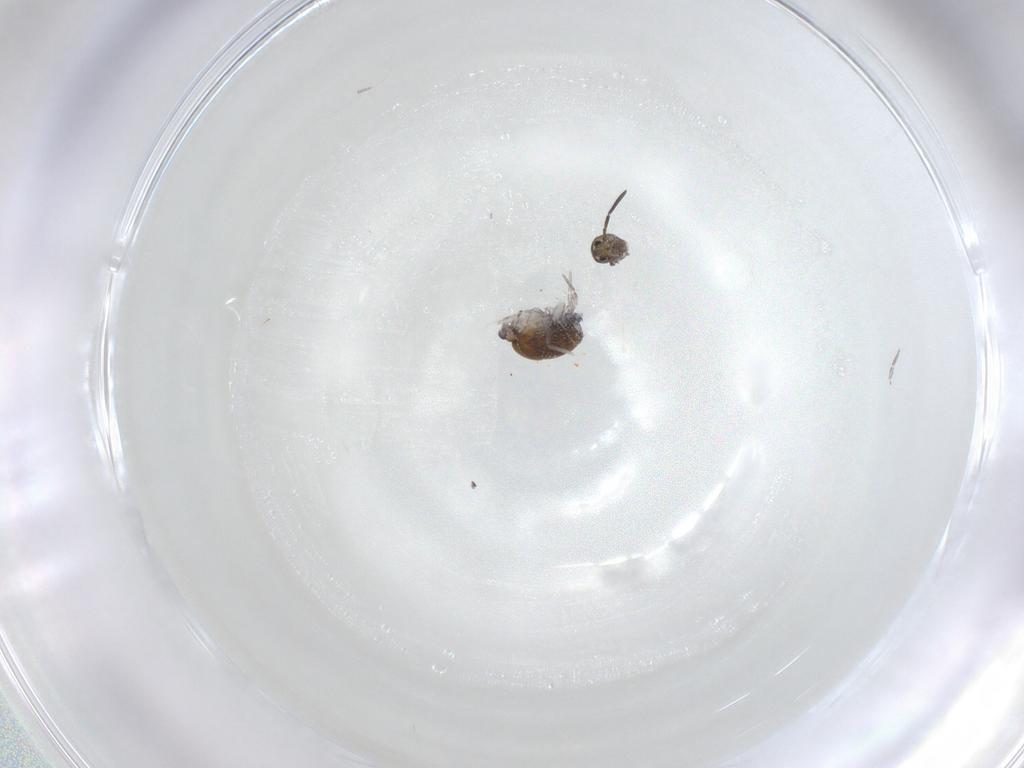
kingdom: Animalia
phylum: Arthropoda
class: Collembola
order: Symphypleona
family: Katiannidae
